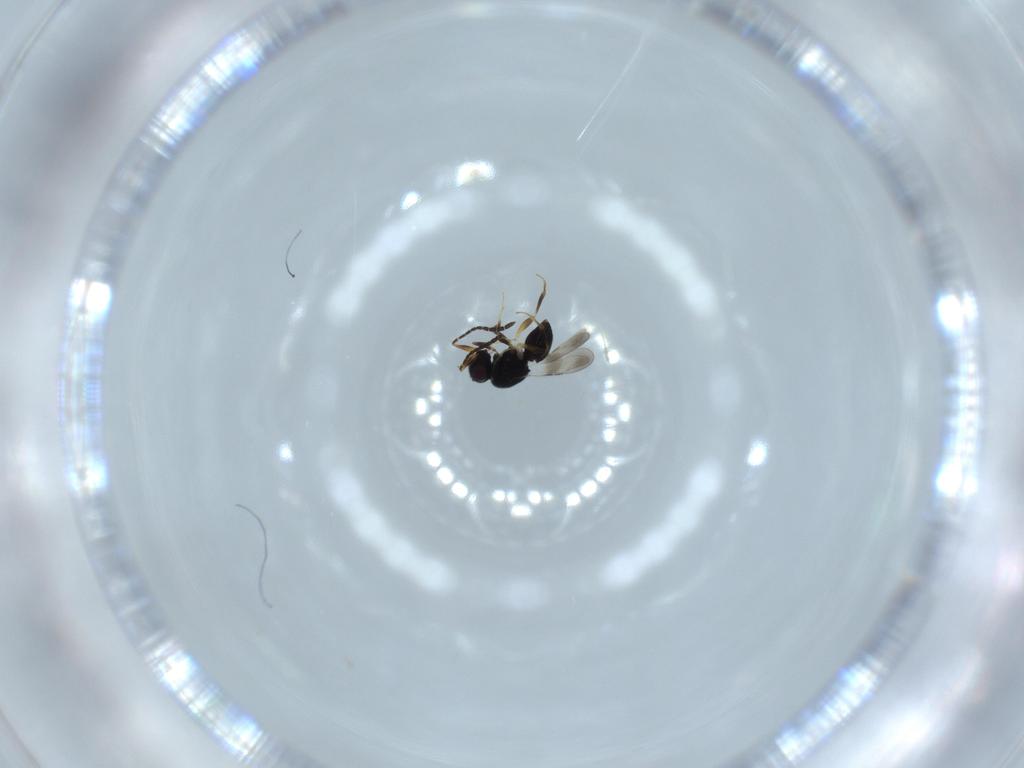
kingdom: Animalia
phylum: Arthropoda
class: Insecta
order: Hymenoptera
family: Formicidae
